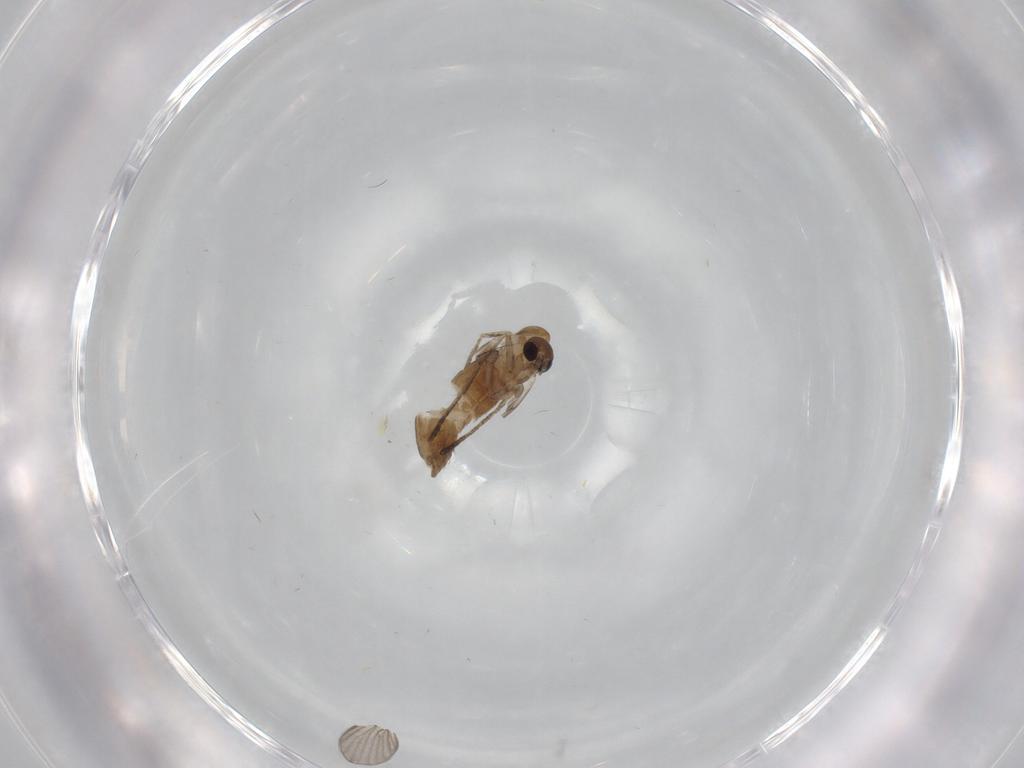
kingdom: Animalia
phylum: Arthropoda
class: Insecta
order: Diptera
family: Psychodidae
